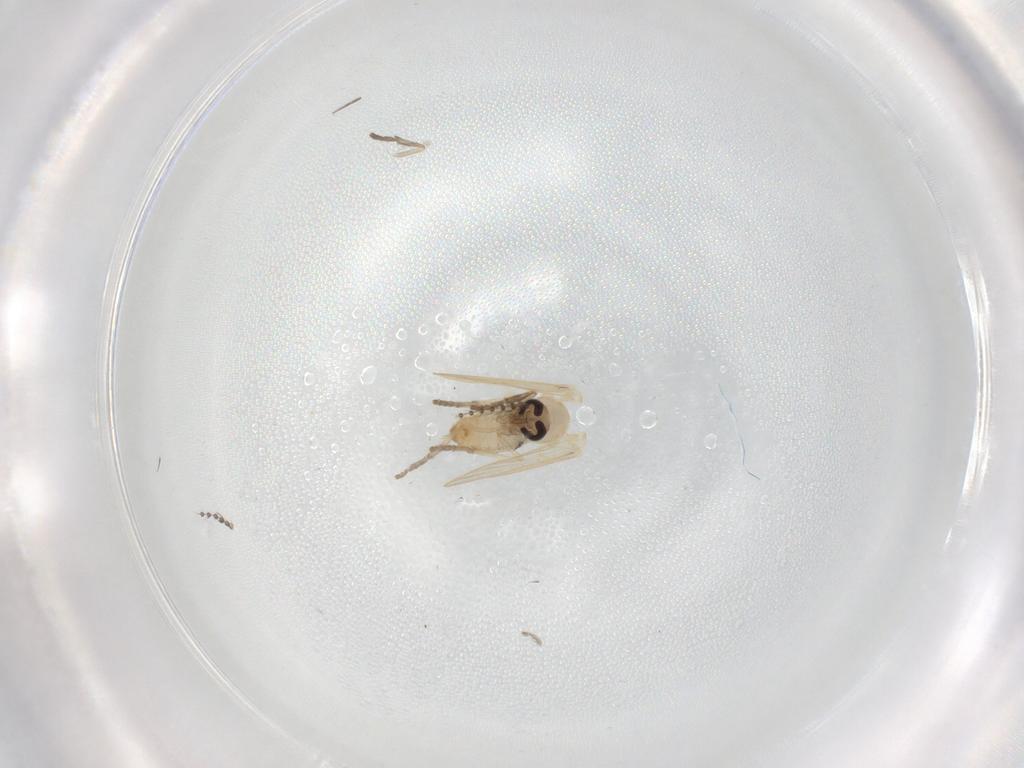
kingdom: Animalia
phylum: Arthropoda
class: Insecta
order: Diptera
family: Psychodidae
